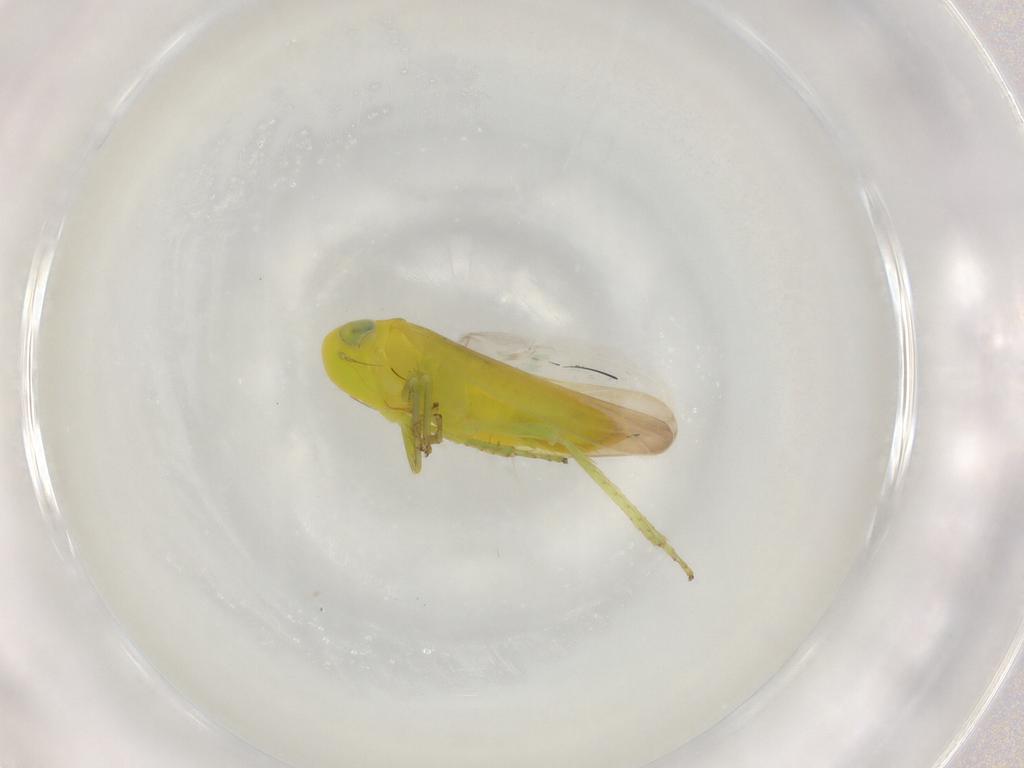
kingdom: Animalia
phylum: Arthropoda
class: Insecta
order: Hemiptera
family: Cicadellidae
